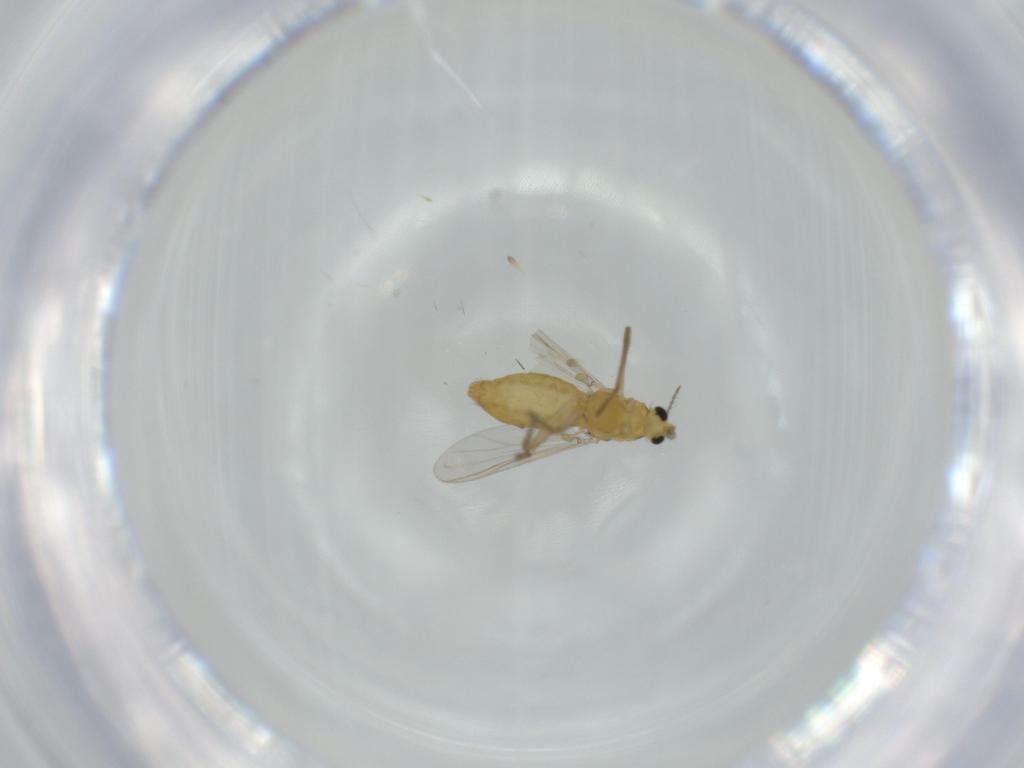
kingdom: Animalia
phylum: Arthropoda
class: Insecta
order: Diptera
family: Chironomidae
